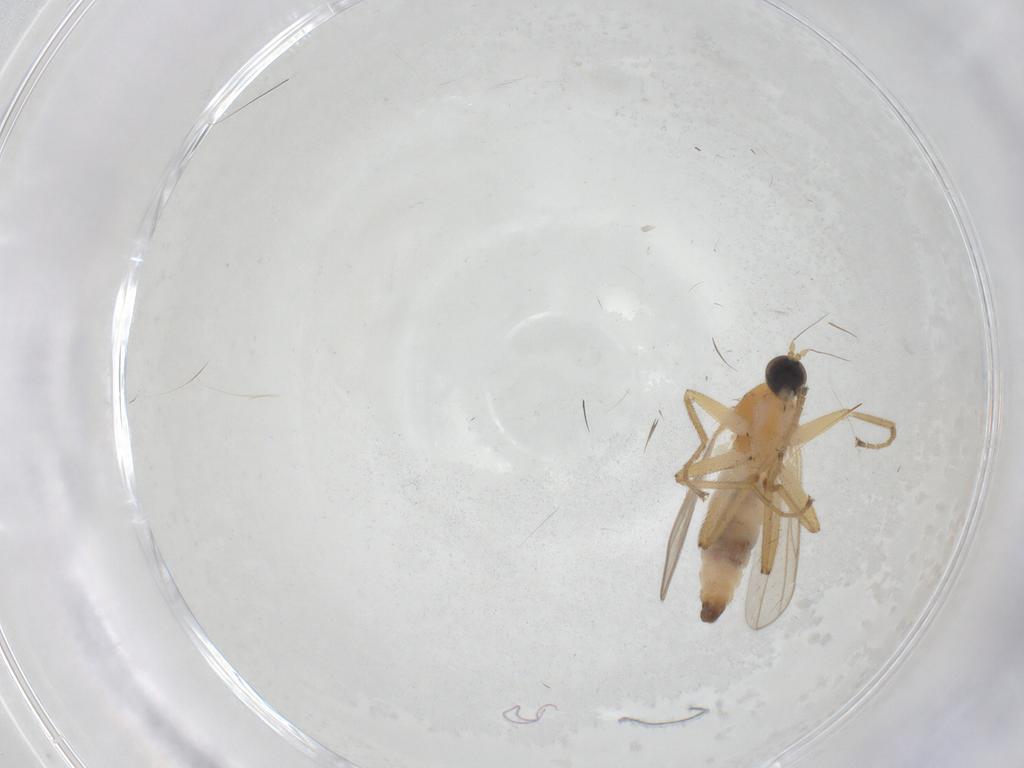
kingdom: Animalia
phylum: Arthropoda
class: Insecta
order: Diptera
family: Hybotidae
